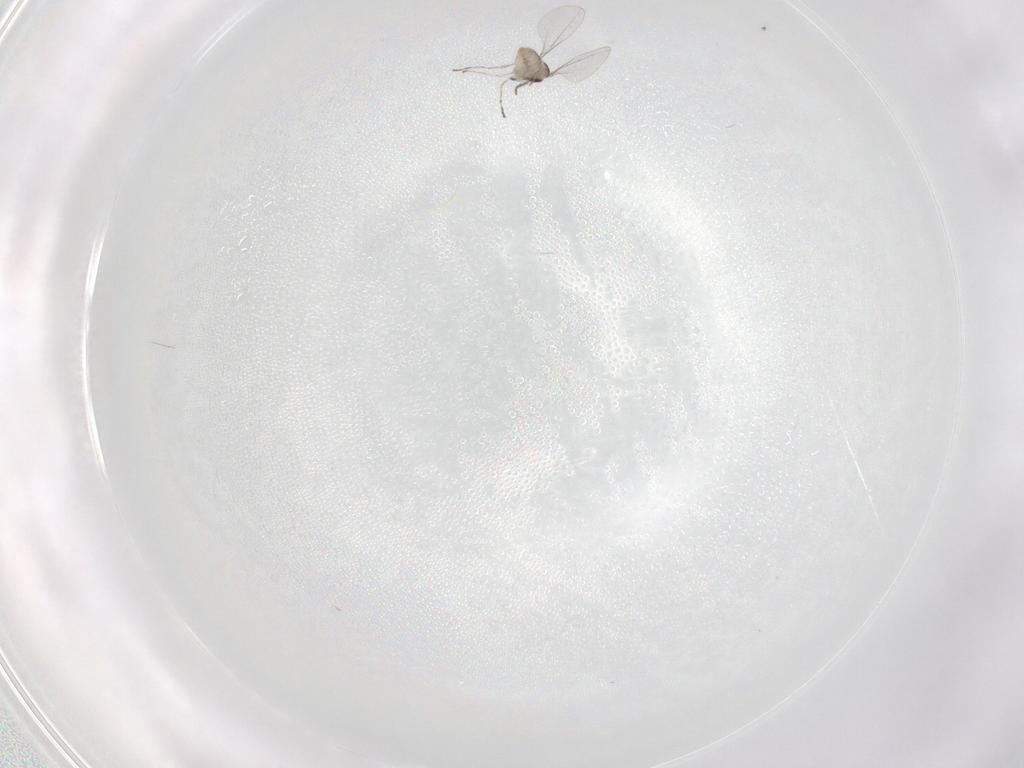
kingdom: Animalia
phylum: Arthropoda
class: Insecta
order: Diptera
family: Cecidomyiidae
